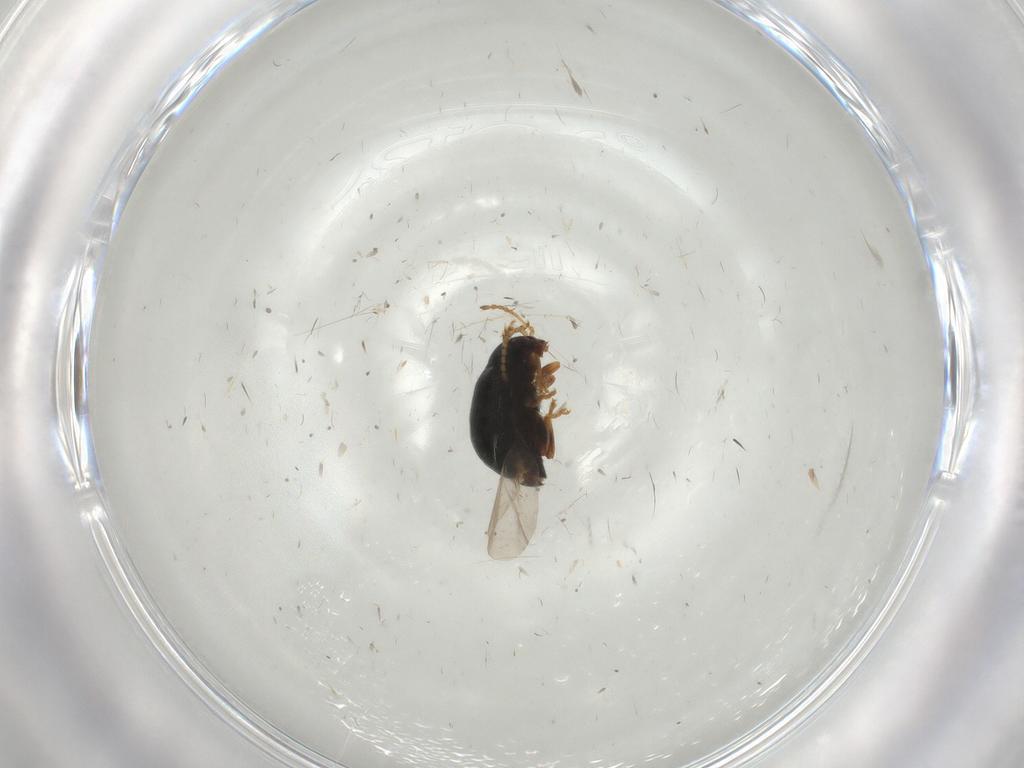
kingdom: Animalia
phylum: Arthropoda
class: Insecta
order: Coleoptera
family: Ptilodactylidae
